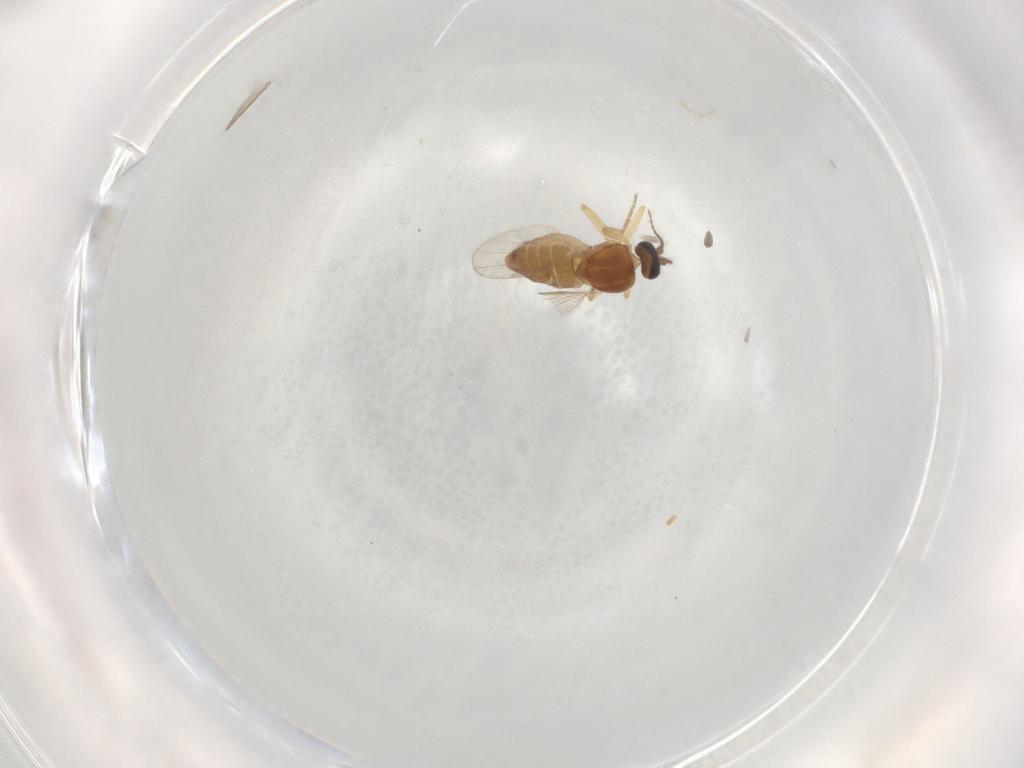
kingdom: Animalia
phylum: Arthropoda
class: Insecta
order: Diptera
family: Ceratopogonidae
